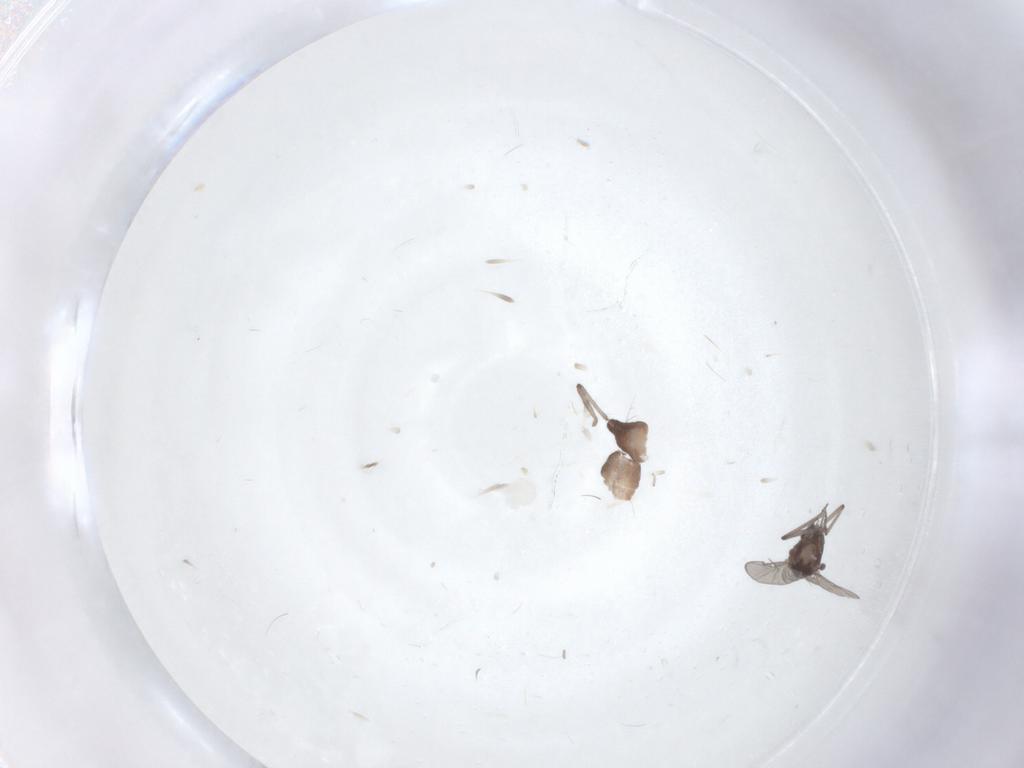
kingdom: Animalia
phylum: Arthropoda
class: Insecta
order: Diptera
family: Ceratopogonidae
